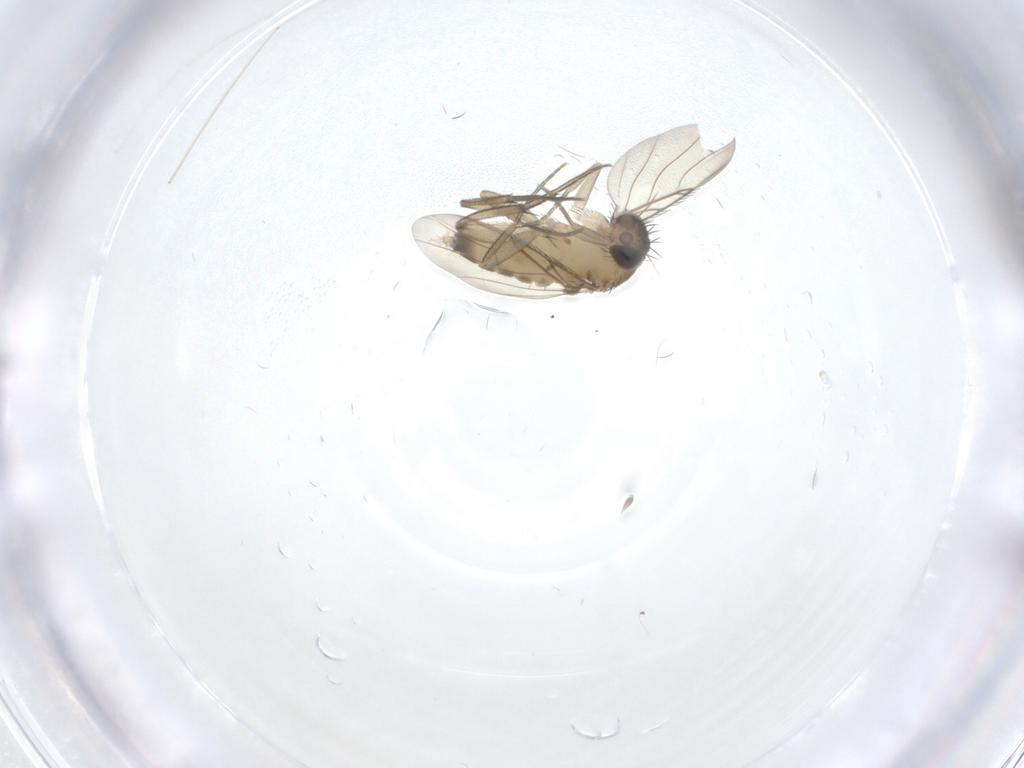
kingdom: Animalia
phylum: Arthropoda
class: Insecta
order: Diptera
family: Phoridae
